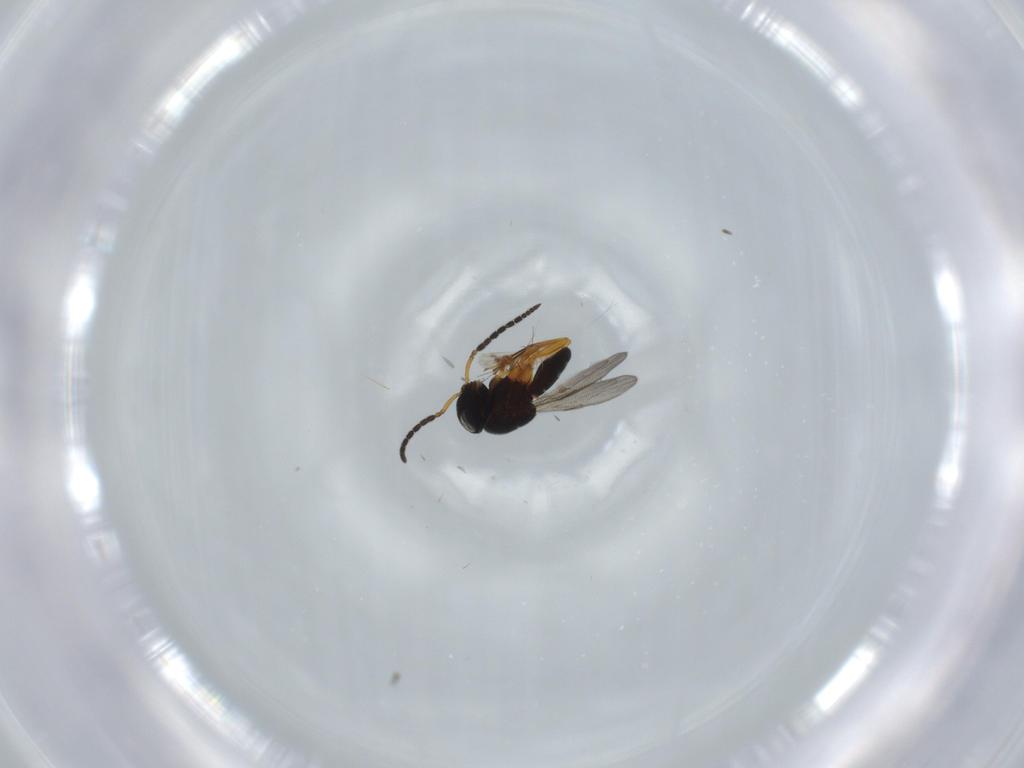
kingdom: Animalia
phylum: Arthropoda
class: Insecta
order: Hymenoptera
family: Scelionidae
